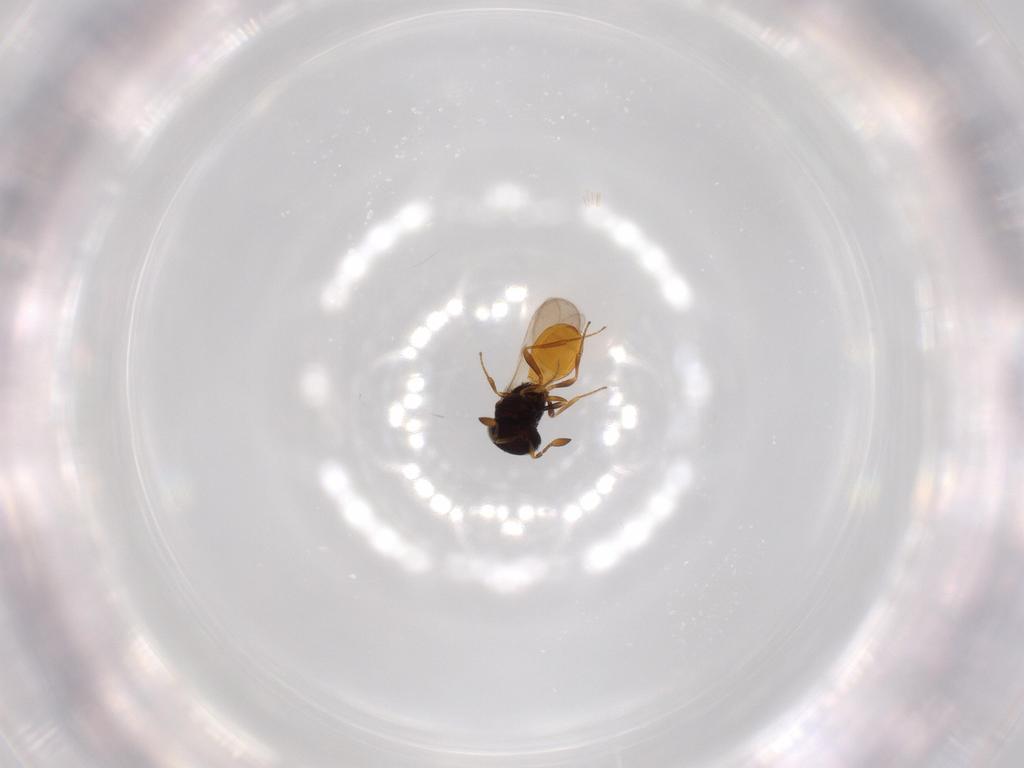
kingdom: Animalia
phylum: Arthropoda
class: Insecta
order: Hymenoptera
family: Scelionidae
